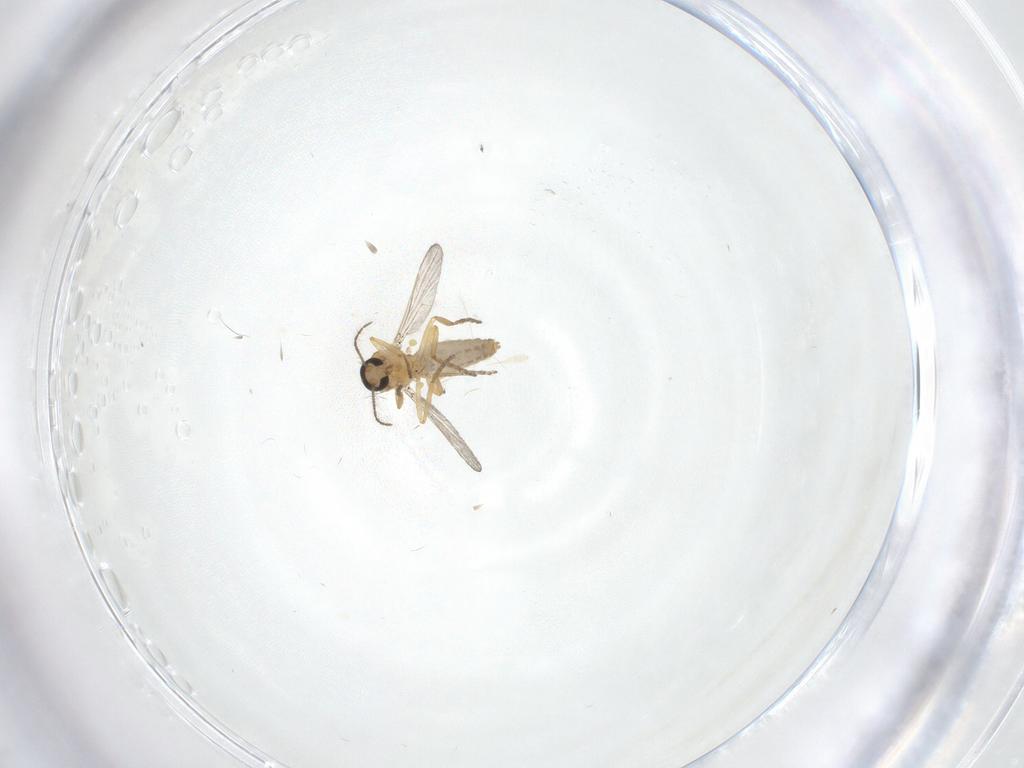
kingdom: Animalia
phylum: Arthropoda
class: Insecta
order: Diptera
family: Ceratopogonidae
